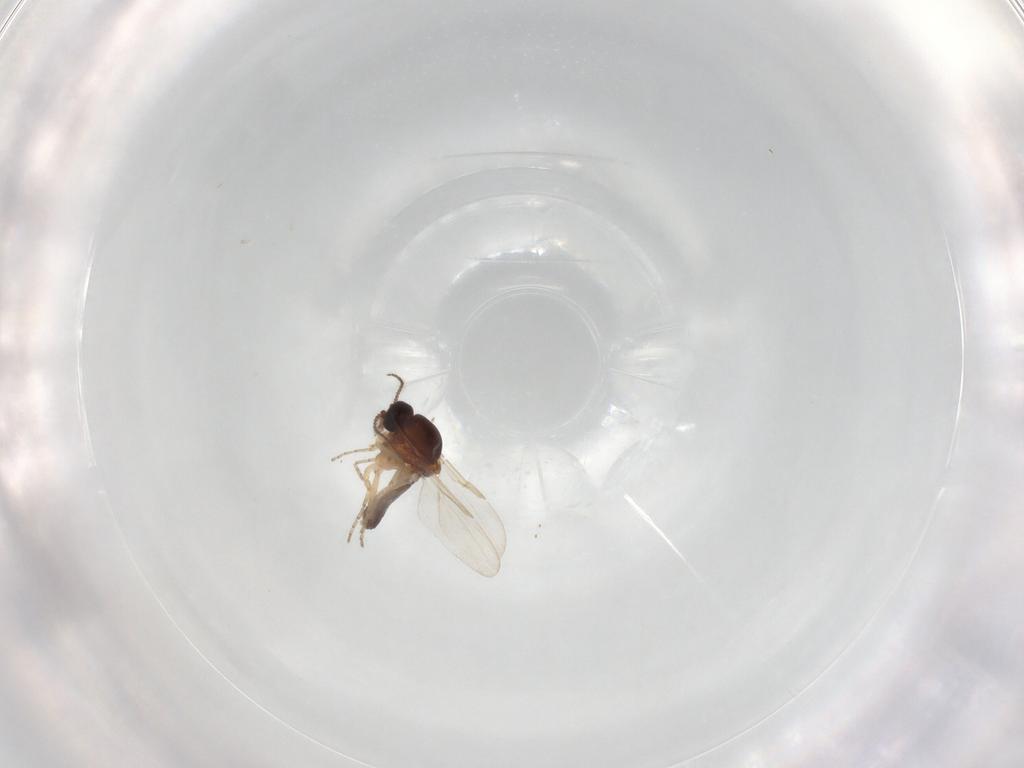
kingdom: Animalia
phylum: Arthropoda
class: Insecta
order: Diptera
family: Ceratopogonidae
